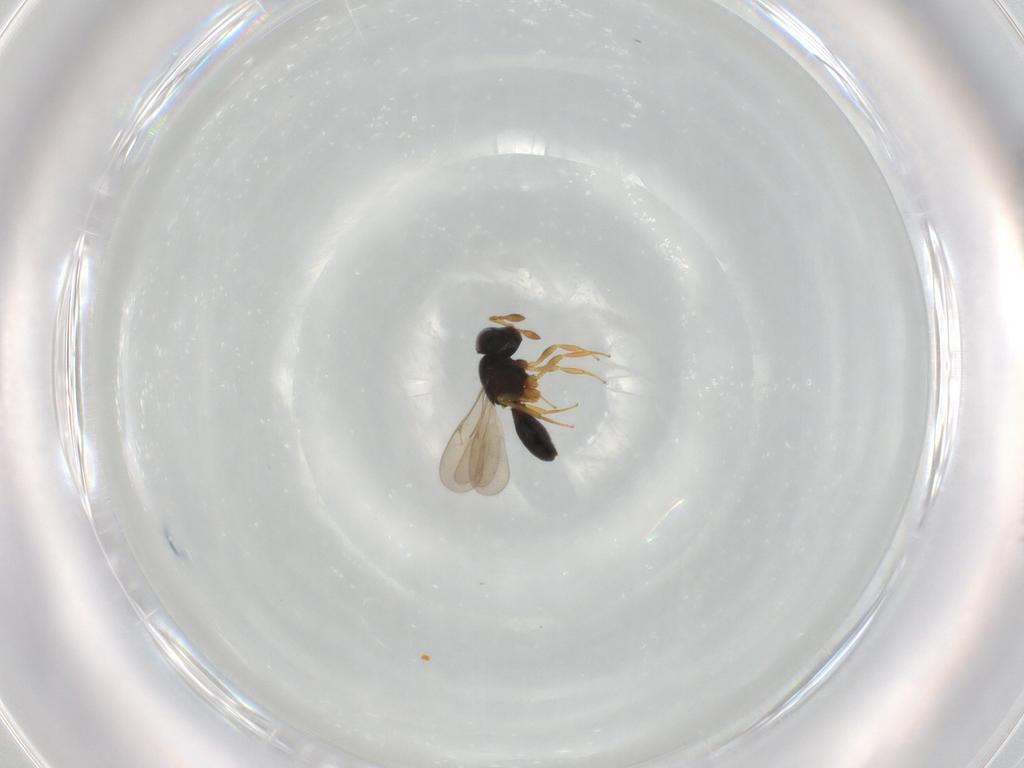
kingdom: Animalia
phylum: Arthropoda
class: Insecta
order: Hymenoptera
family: Scelionidae
